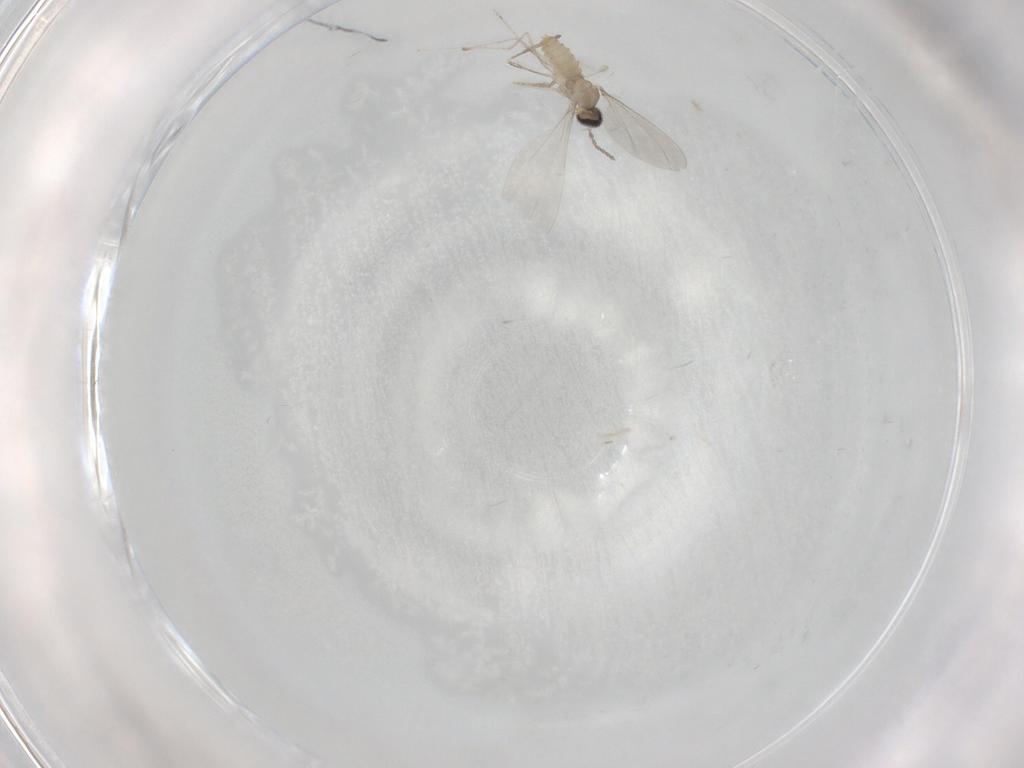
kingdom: Animalia
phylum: Arthropoda
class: Insecta
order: Diptera
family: Cecidomyiidae
